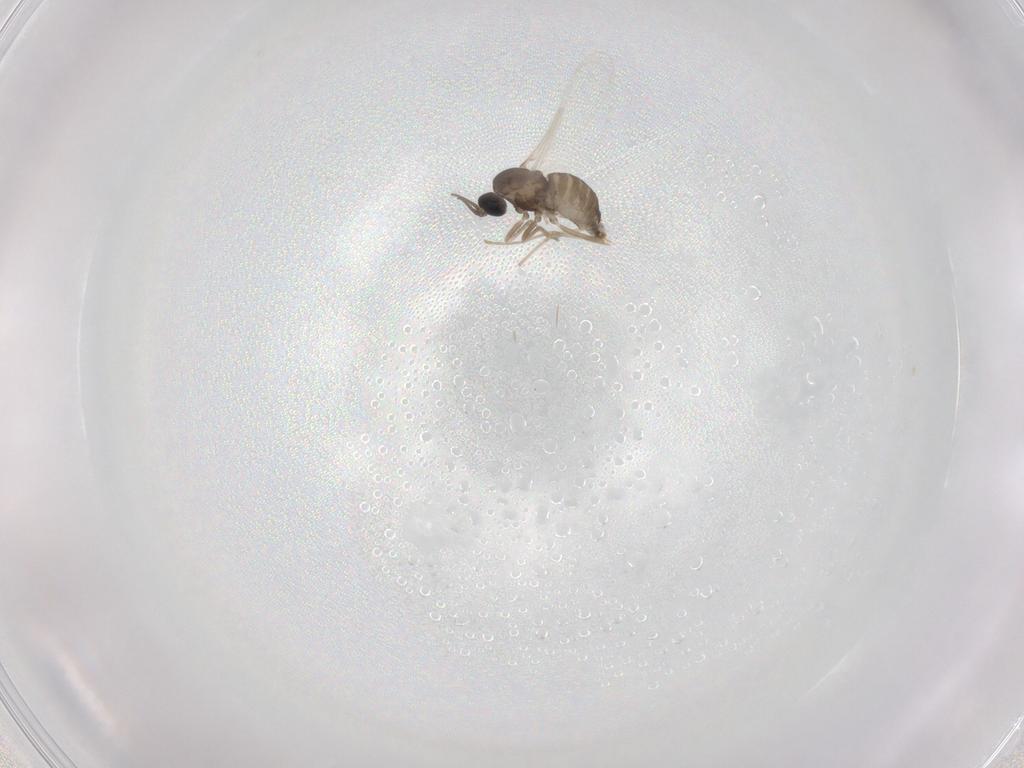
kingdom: Animalia
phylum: Arthropoda
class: Insecta
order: Diptera
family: Cecidomyiidae
